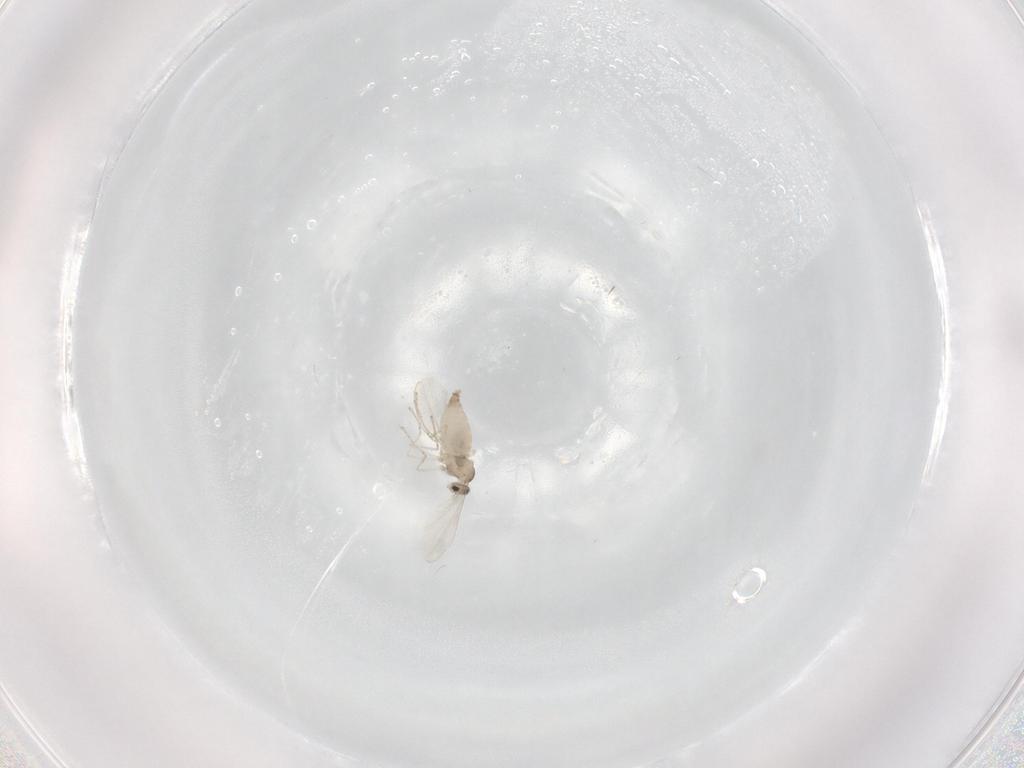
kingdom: Animalia
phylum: Arthropoda
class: Insecta
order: Diptera
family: Cecidomyiidae
